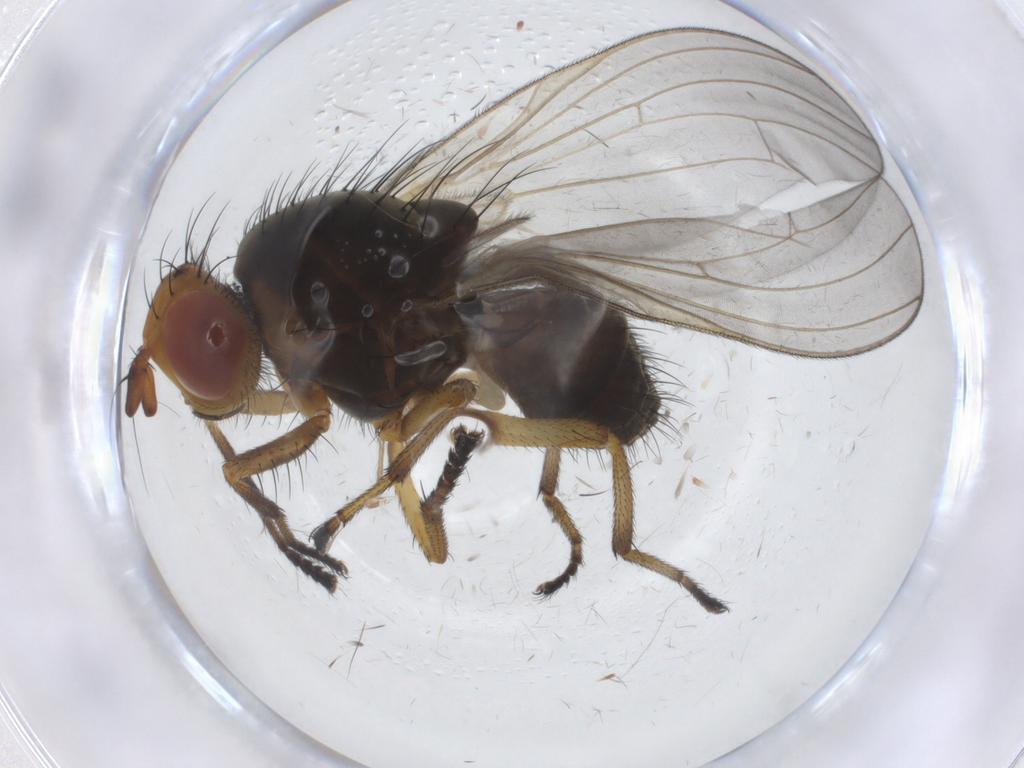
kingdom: Animalia
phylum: Arthropoda
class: Insecta
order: Diptera
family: Chironomidae
